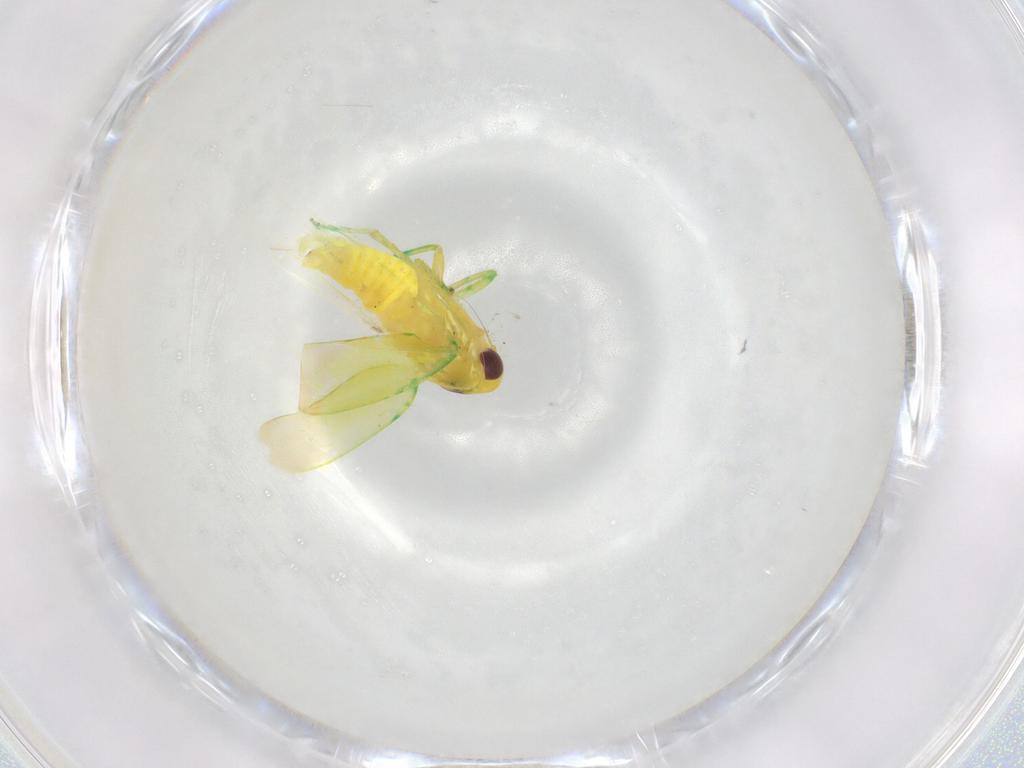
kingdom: Animalia
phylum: Arthropoda
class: Insecta
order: Hemiptera
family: Cicadellidae
